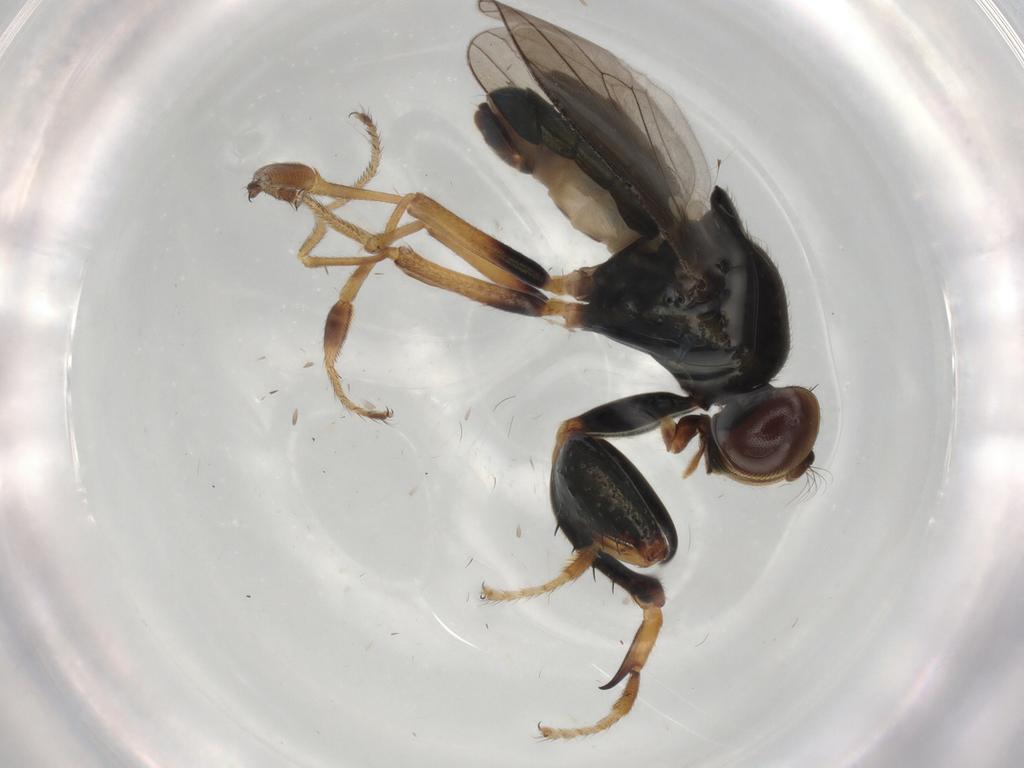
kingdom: Animalia
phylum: Arthropoda
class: Insecta
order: Diptera
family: Ephydridae
